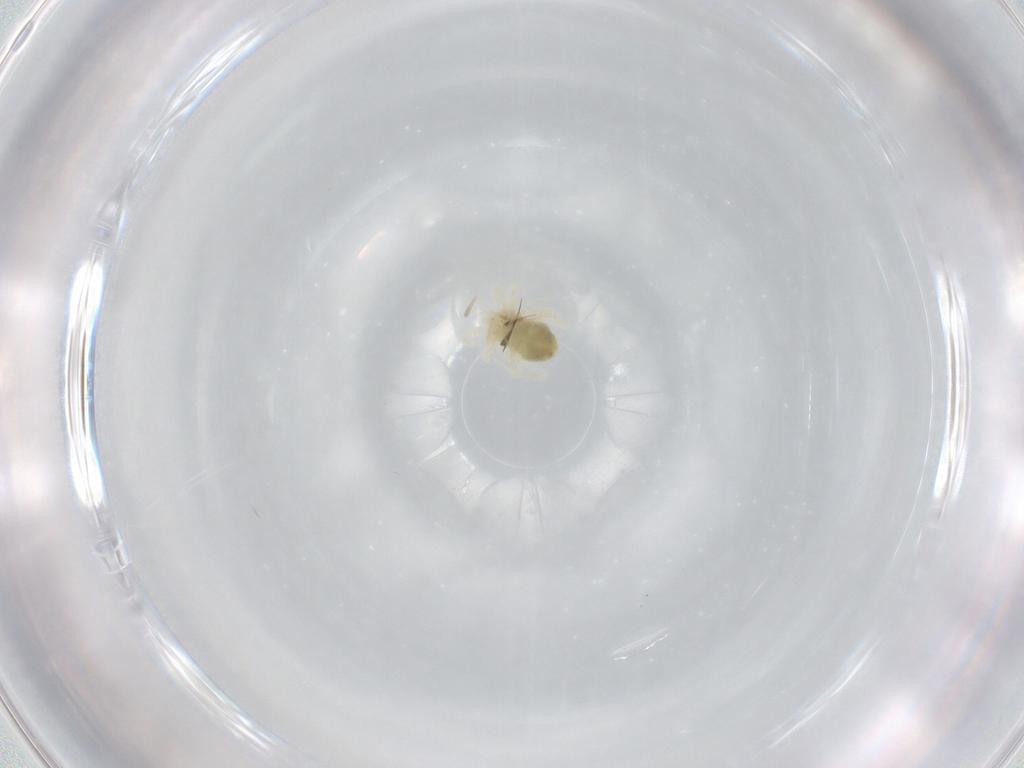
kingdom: Animalia
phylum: Arthropoda
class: Arachnida
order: Trombidiformes
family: Anystidae
